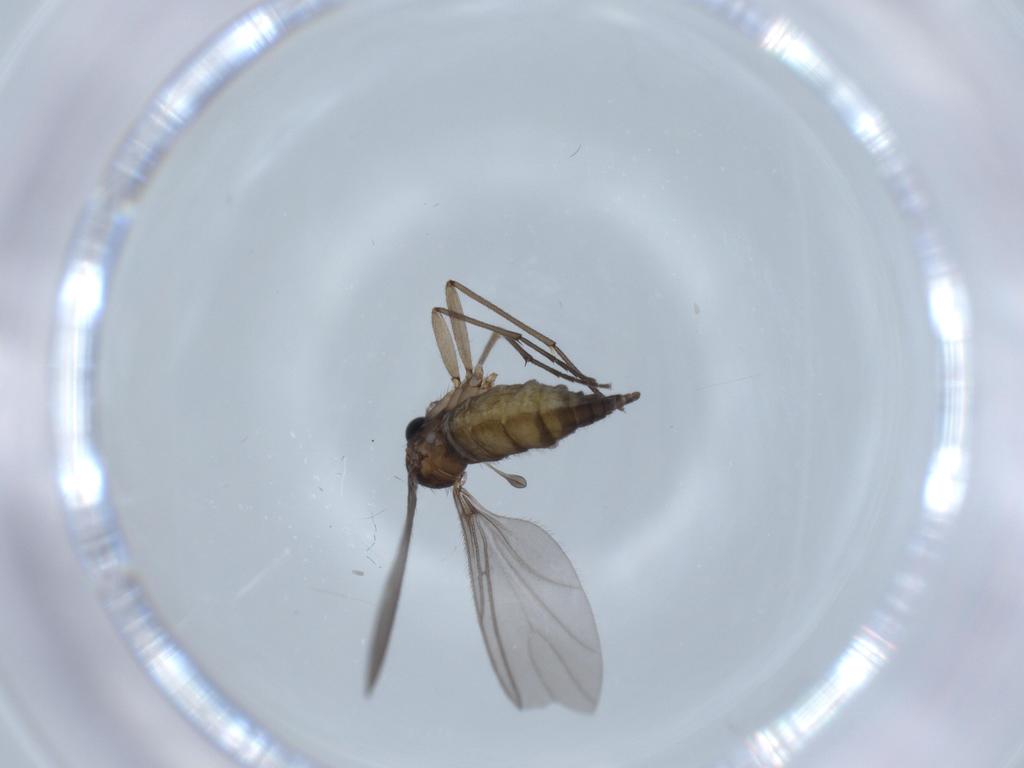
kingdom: Animalia
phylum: Arthropoda
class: Insecta
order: Diptera
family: Sciaridae
